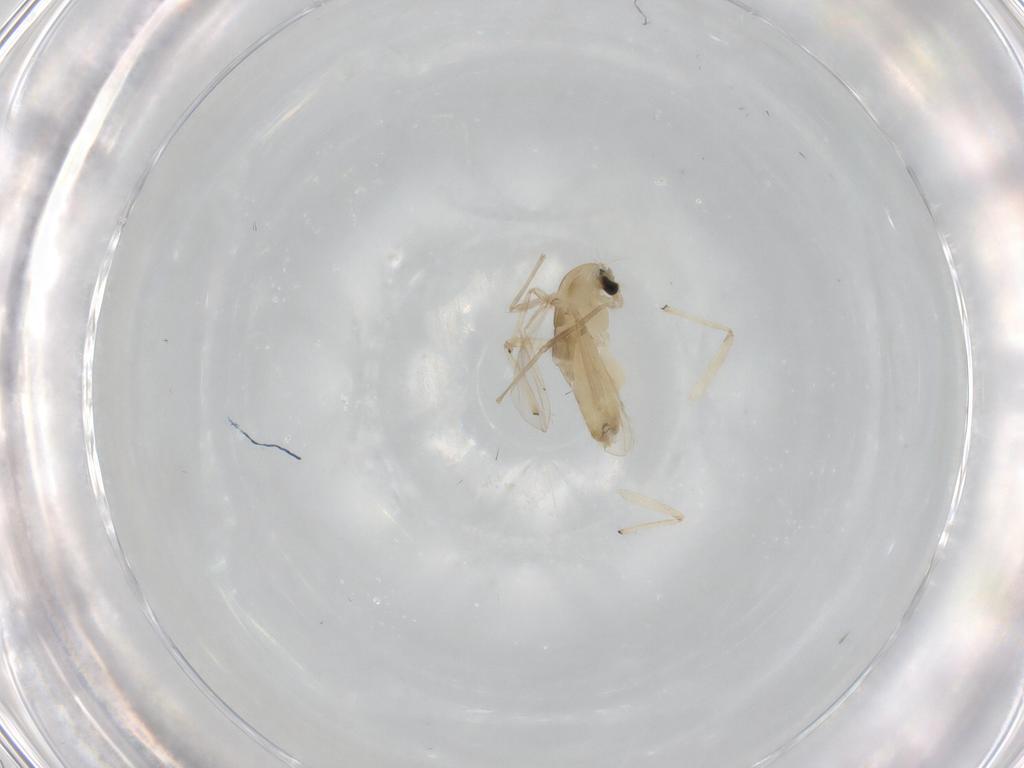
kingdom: Animalia
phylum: Arthropoda
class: Insecta
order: Diptera
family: Chironomidae
